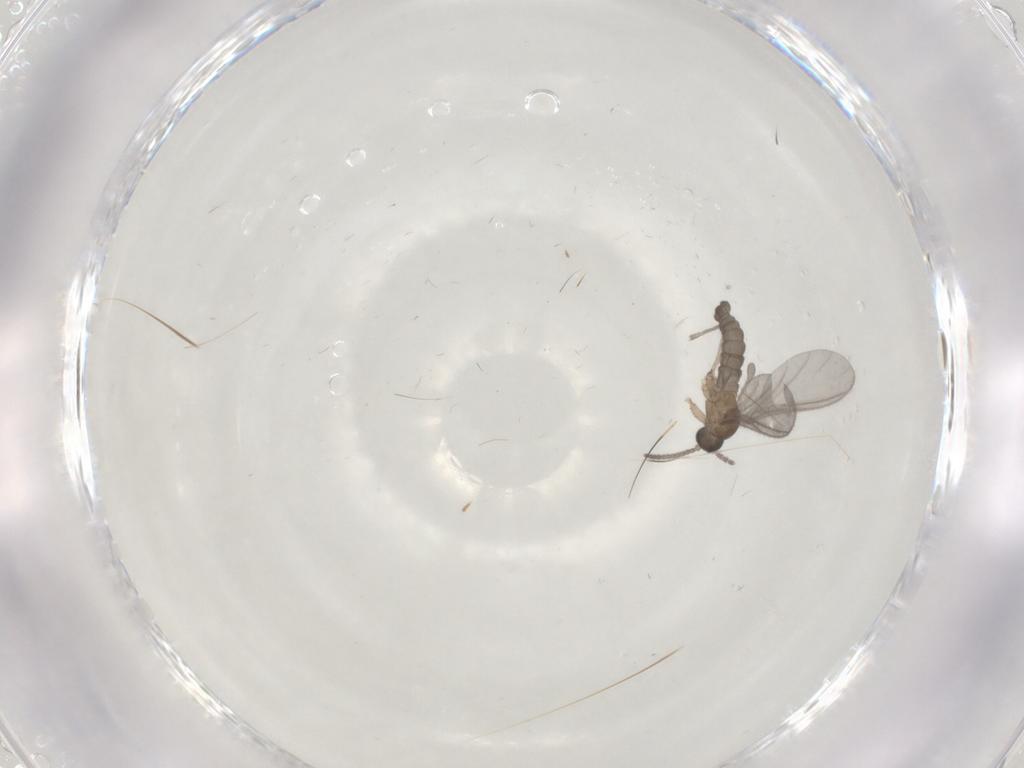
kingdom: Animalia
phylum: Arthropoda
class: Insecta
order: Diptera
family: Sciaridae
